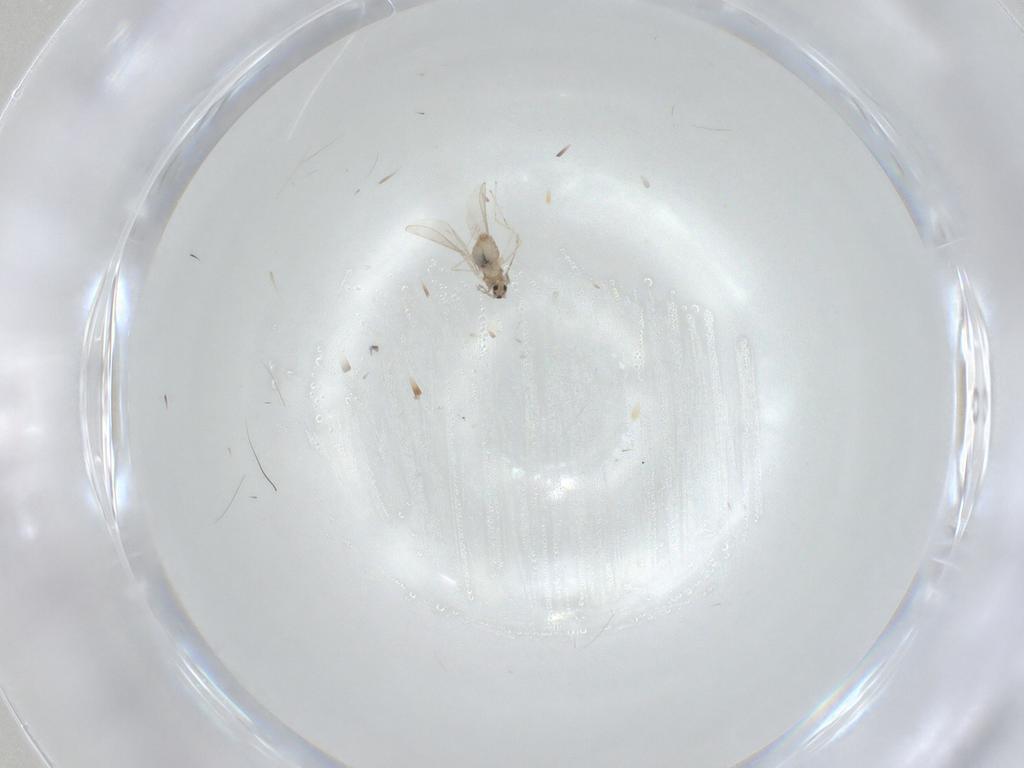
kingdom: Animalia
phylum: Arthropoda
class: Insecta
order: Diptera
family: Cecidomyiidae
